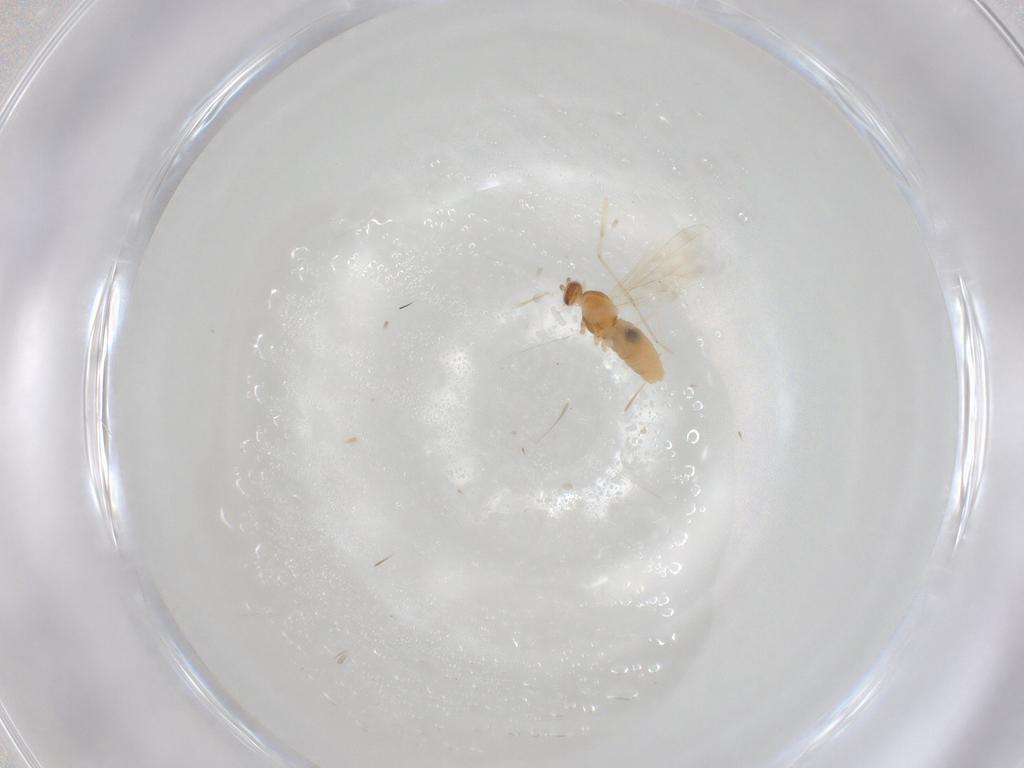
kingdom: Animalia
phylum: Arthropoda
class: Insecta
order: Diptera
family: Cecidomyiidae
